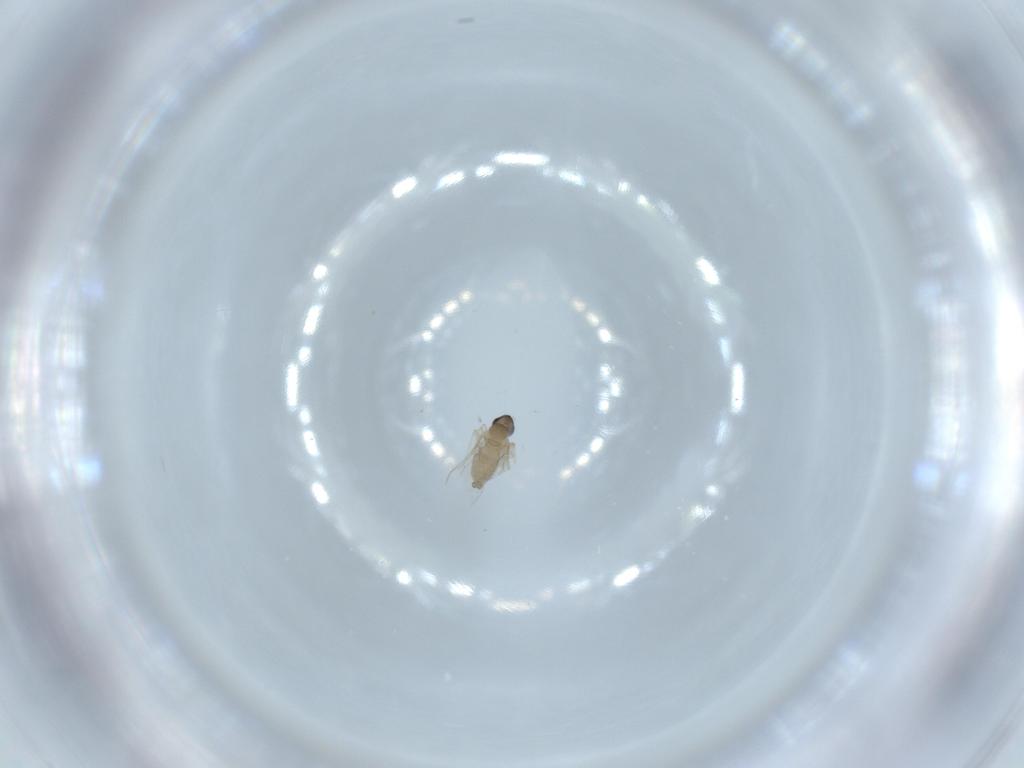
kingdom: Animalia
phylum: Arthropoda
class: Insecta
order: Diptera
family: Cecidomyiidae
